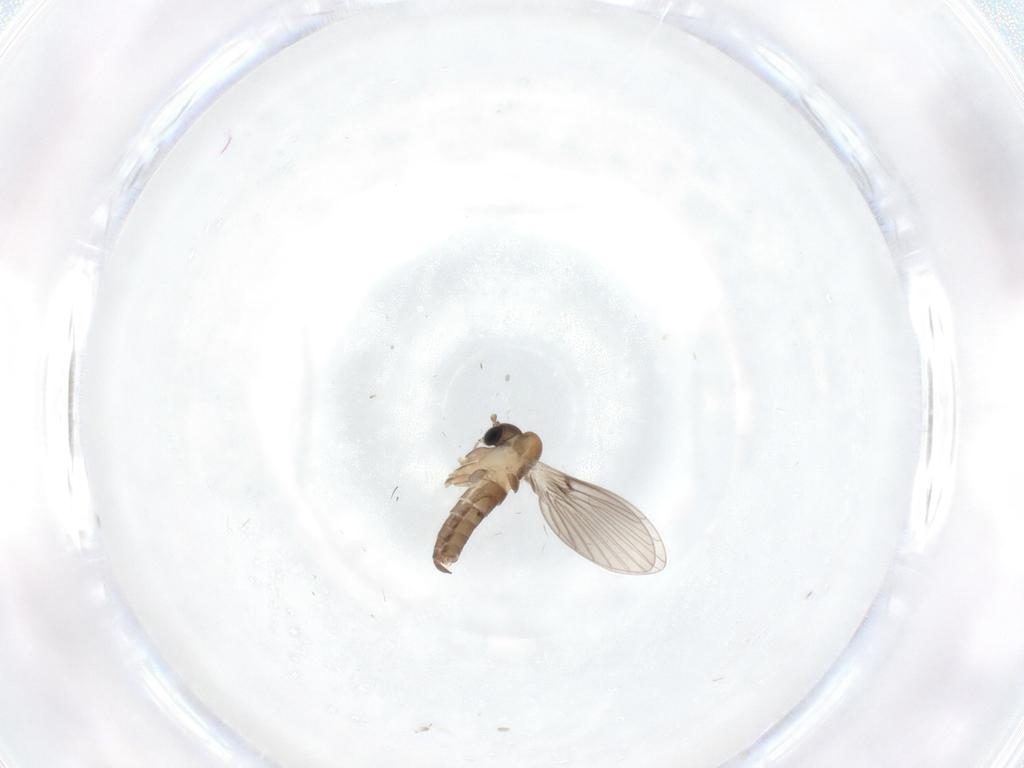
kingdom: Animalia
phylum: Arthropoda
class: Insecta
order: Diptera
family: Psychodidae
